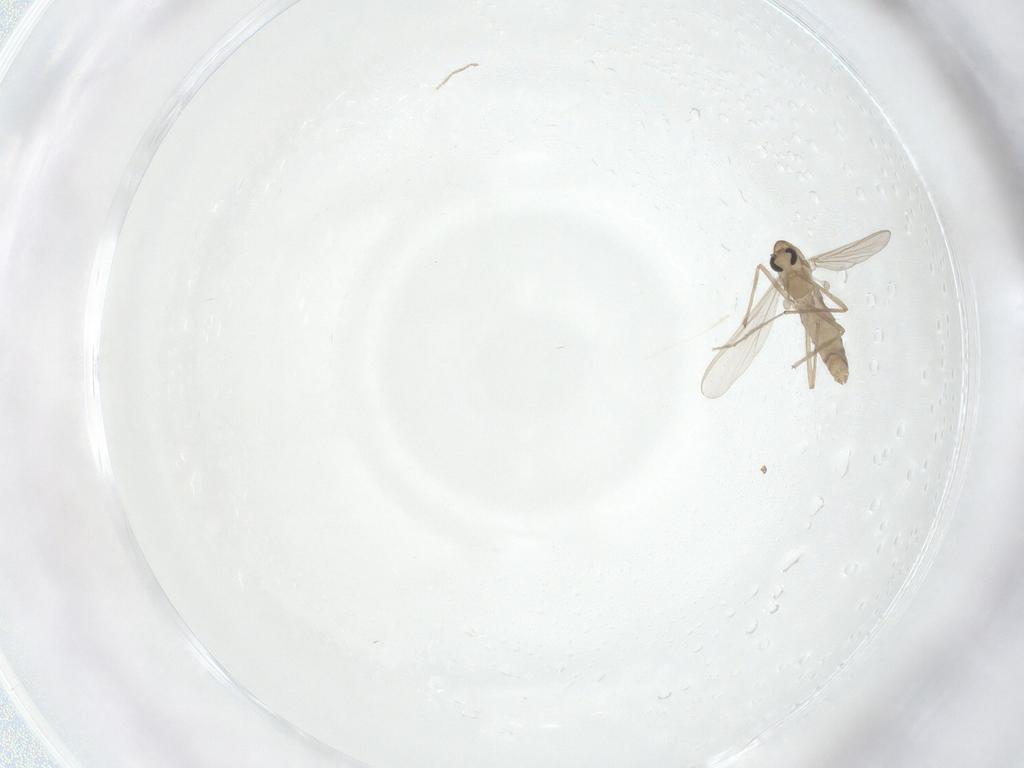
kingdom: Animalia
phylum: Arthropoda
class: Insecta
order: Diptera
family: Chironomidae
